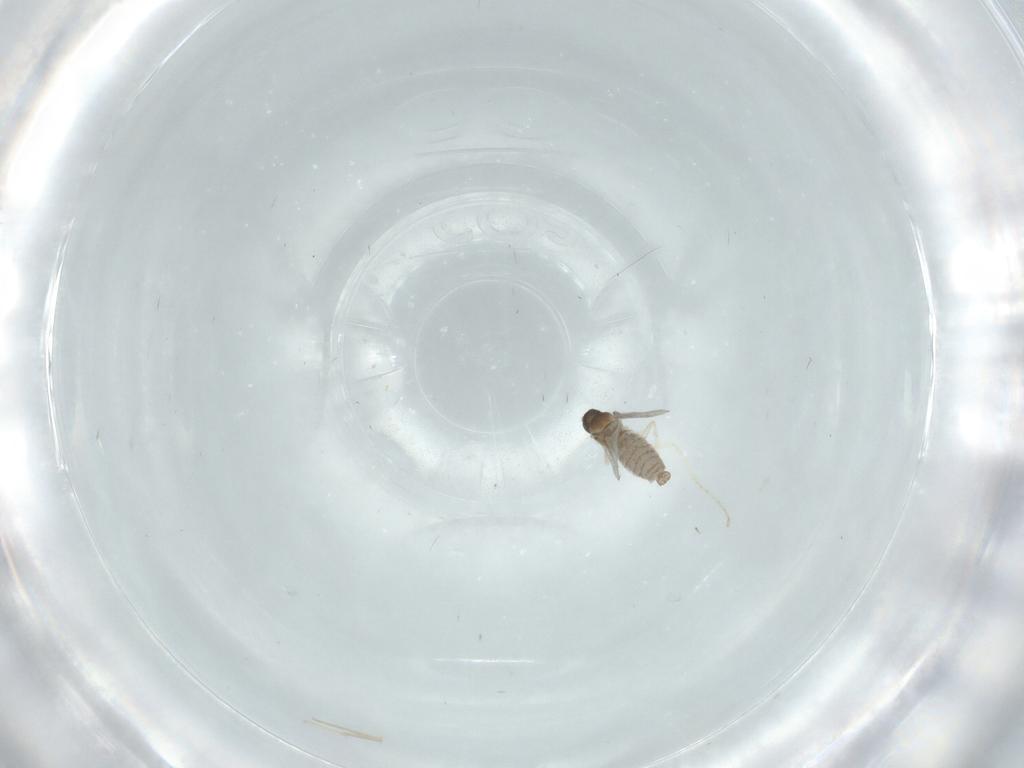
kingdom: Animalia
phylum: Arthropoda
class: Insecta
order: Diptera
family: Cecidomyiidae
